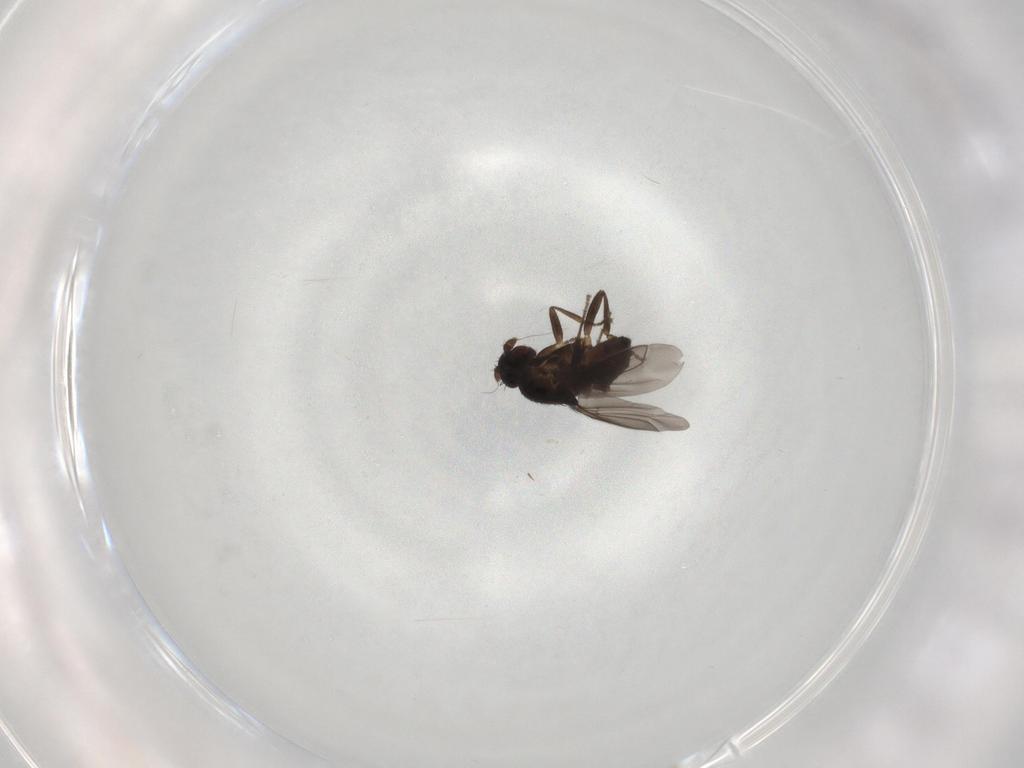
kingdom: Animalia
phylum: Arthropoda
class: Insecta
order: Diptera
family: Sphaeroceridae
